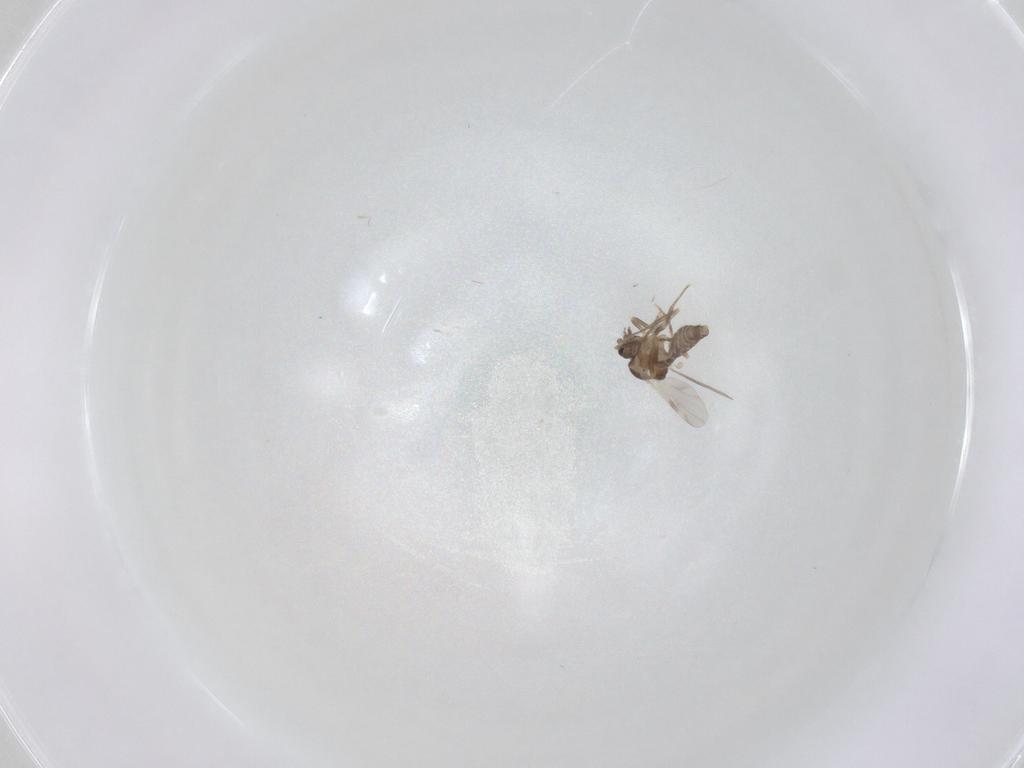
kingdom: Animalia
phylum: Arthropoda
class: Insecta
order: Diptera
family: Ceratopogonidae
